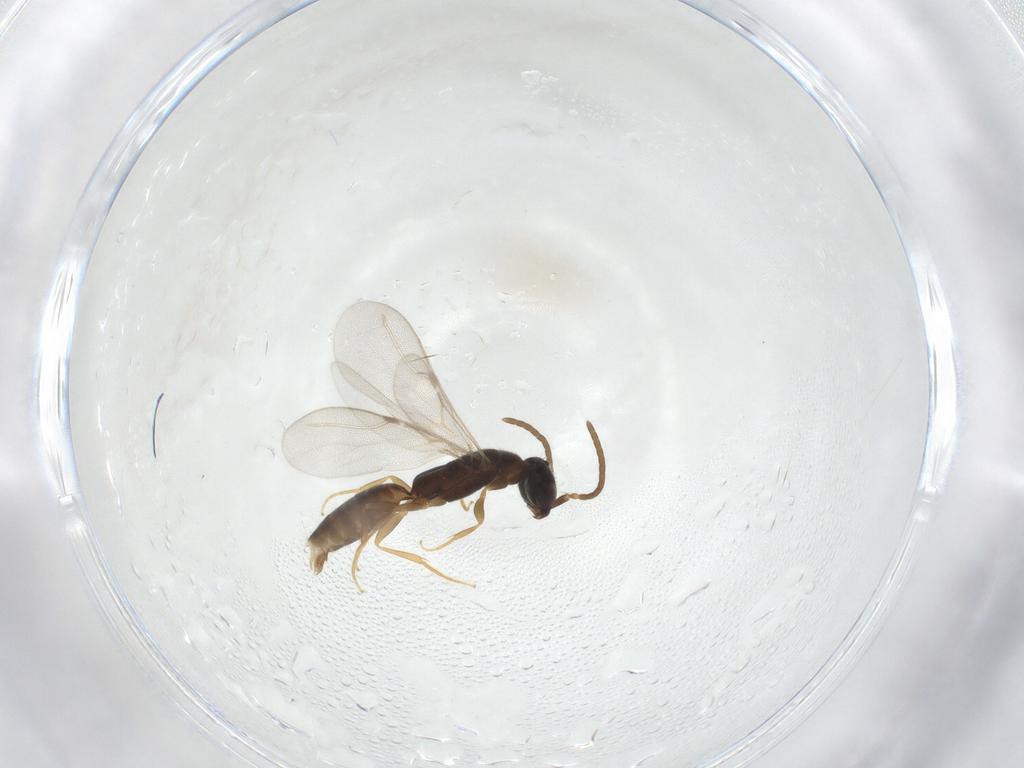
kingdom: Animalia
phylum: Arthropoda
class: Insecta
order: Hymenoptera
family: Bethylidae
